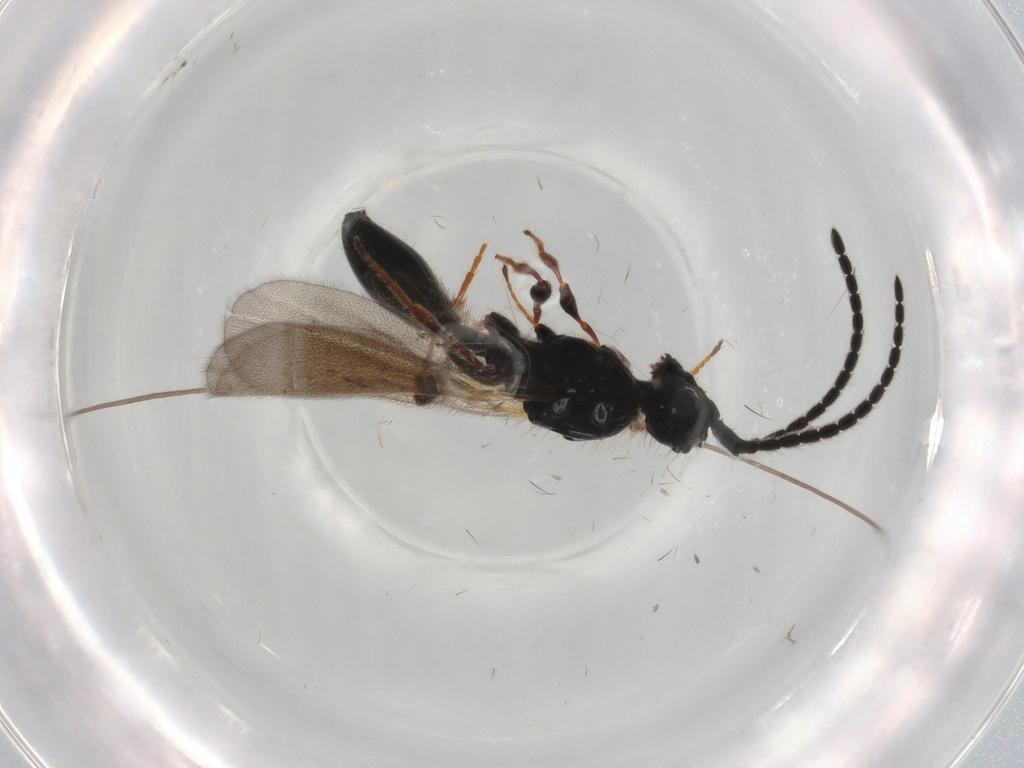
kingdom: Animalia
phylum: Arthropoda
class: Insecta
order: Hymenoptera
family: Diapriidae
